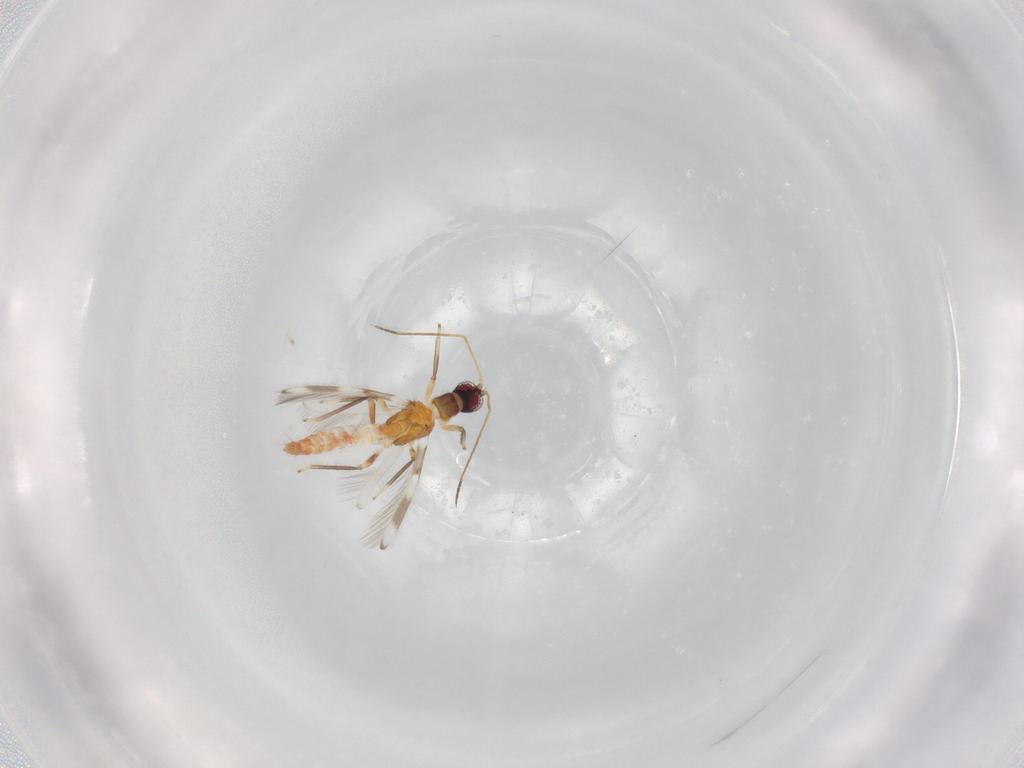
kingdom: Animalia
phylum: Arthropoda
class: Insecta
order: Thysanoptera
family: Aeolothripidae
